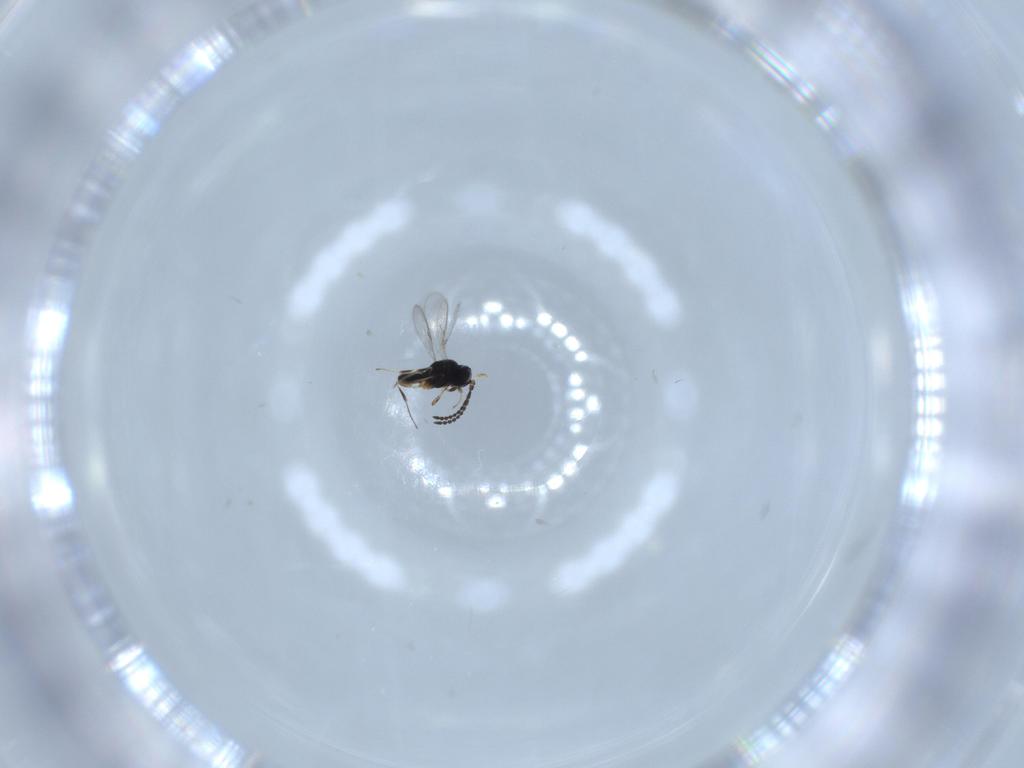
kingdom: Animalia
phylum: Arthropoda
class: Insecta
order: Hymenoptera
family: Scelionidae
